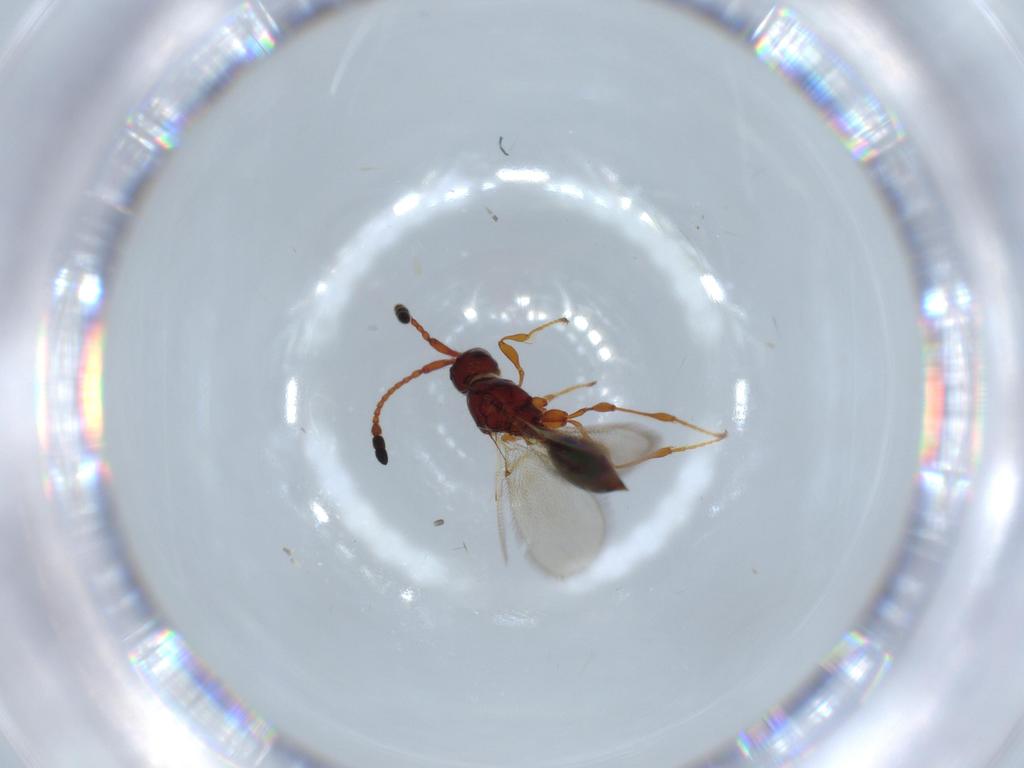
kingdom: Animalia
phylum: Arthropoda
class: Insecta
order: Hymenoptera
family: Diapriidae
